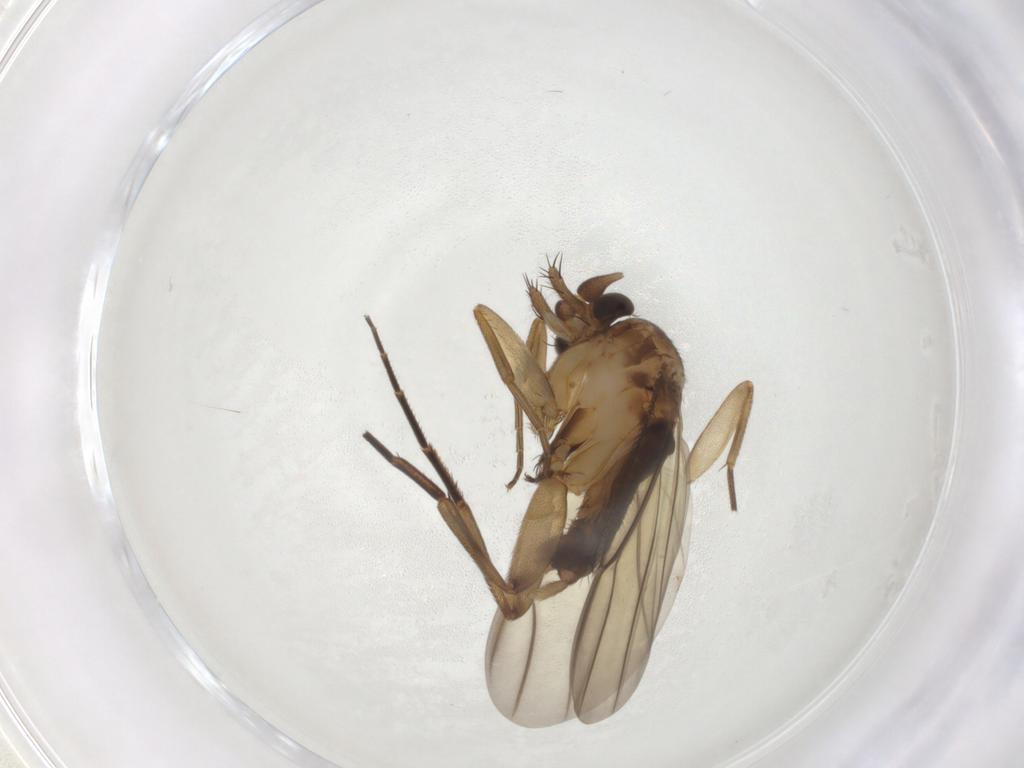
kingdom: Animalia
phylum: Arthropoda
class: Insecta
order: Diptera
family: Phoridae
